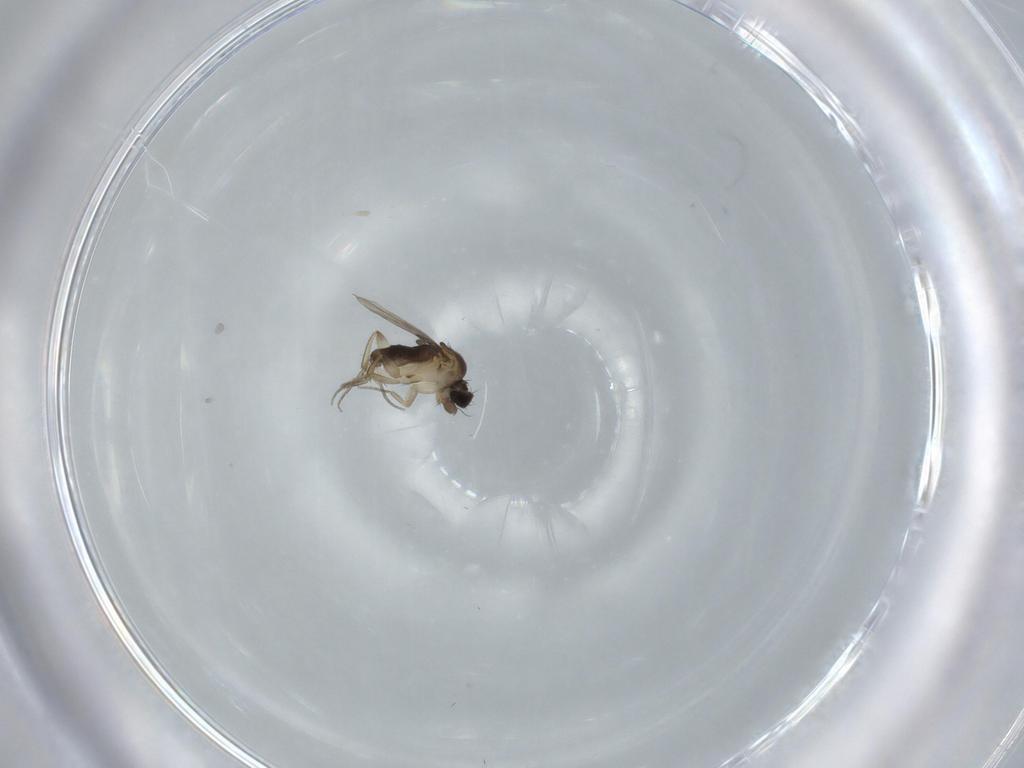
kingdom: Animalia
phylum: Arthropoda
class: Insecta
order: Diptera
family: Phoridae
